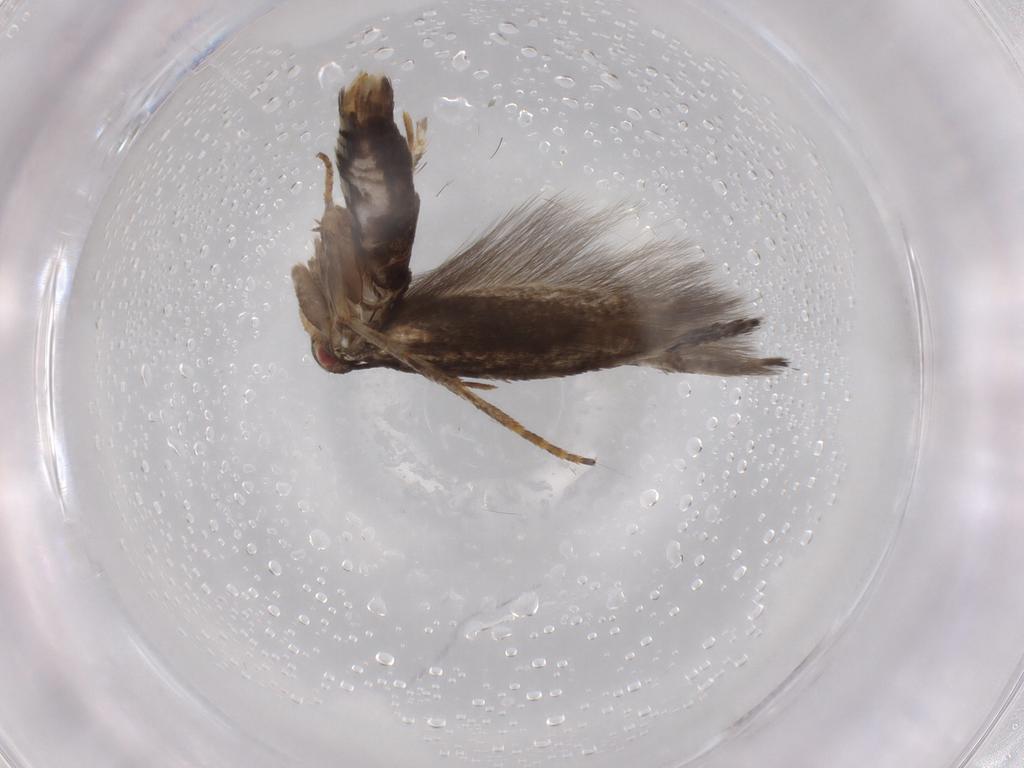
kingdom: Animalia
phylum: Arthropoda
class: Insecta
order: Lepidoptera
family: Momphidae
